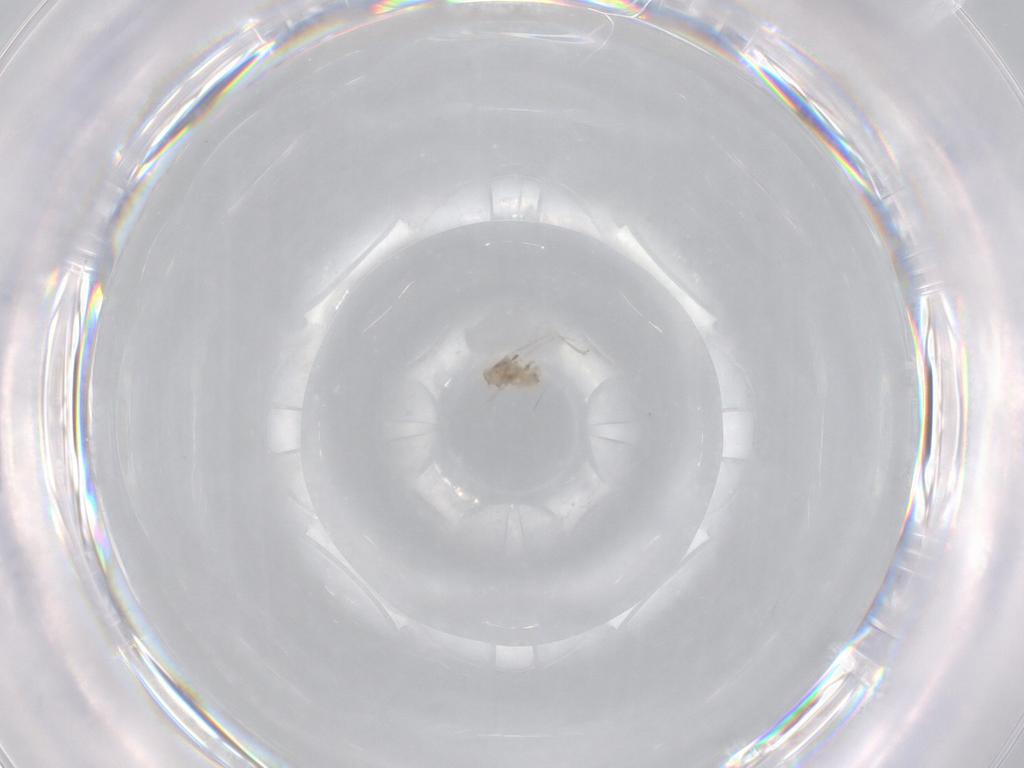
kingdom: Animalia
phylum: Arthropoda
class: Insecta
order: Diptera
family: Cecidomyiidae
